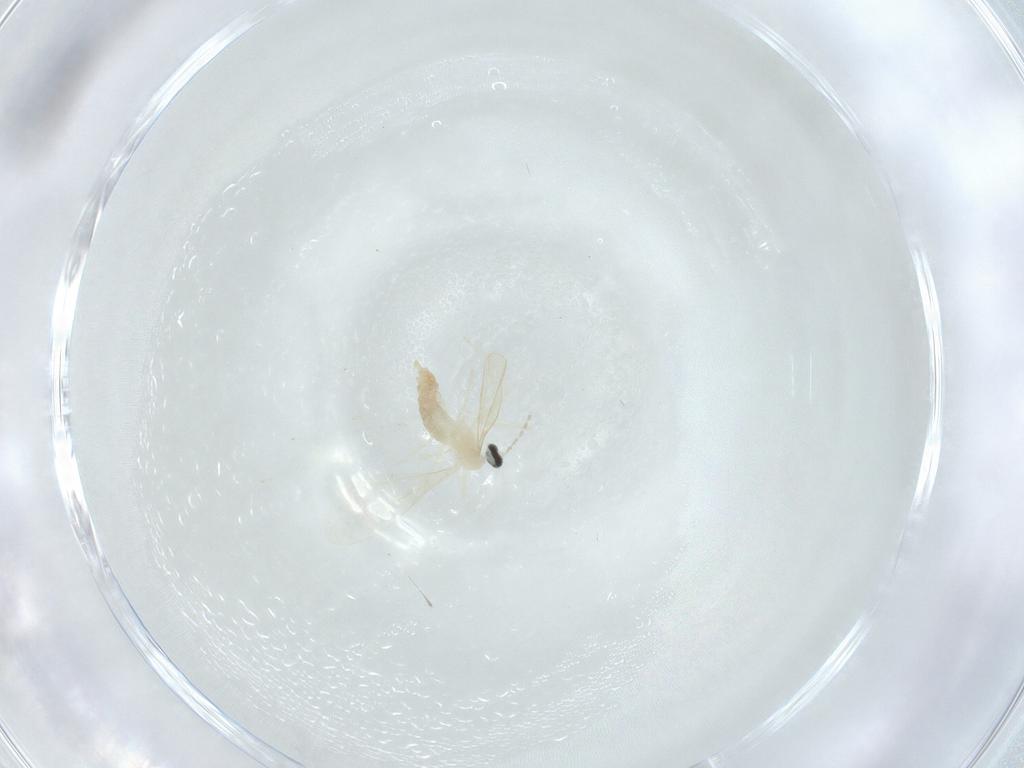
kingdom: Animalia
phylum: Arthropoda
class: Insecta
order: Diptera
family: Cecidomyiidae
